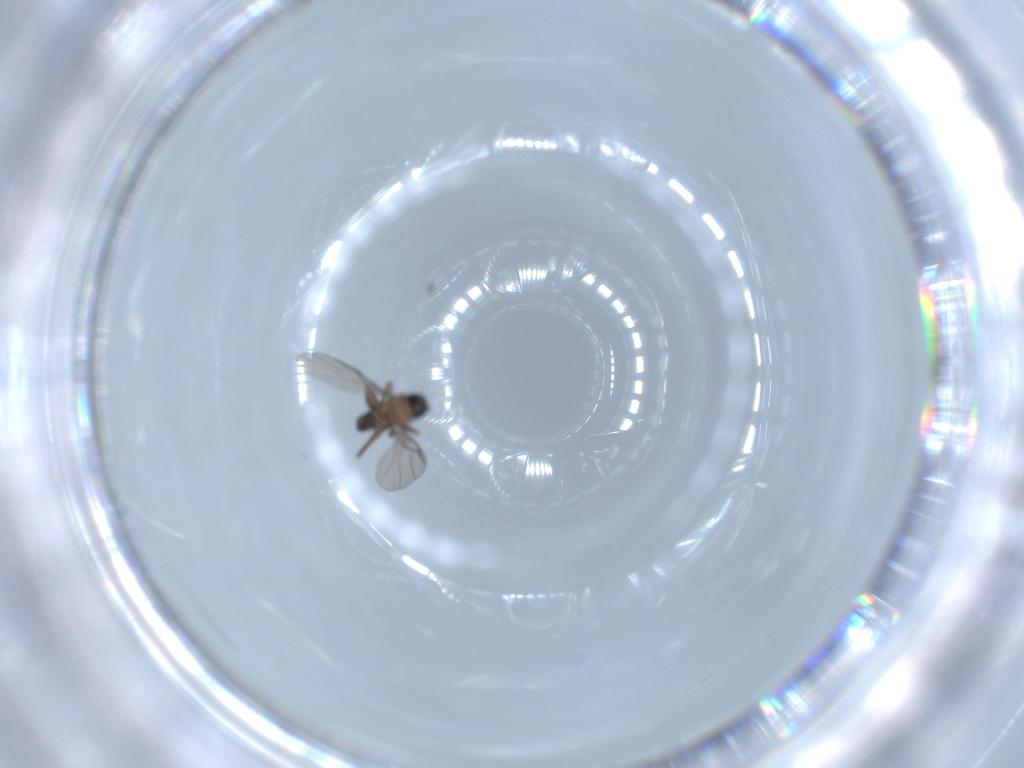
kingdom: Animalia
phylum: Arthropoda
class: Insecta
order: Diptera
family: Phoridae
